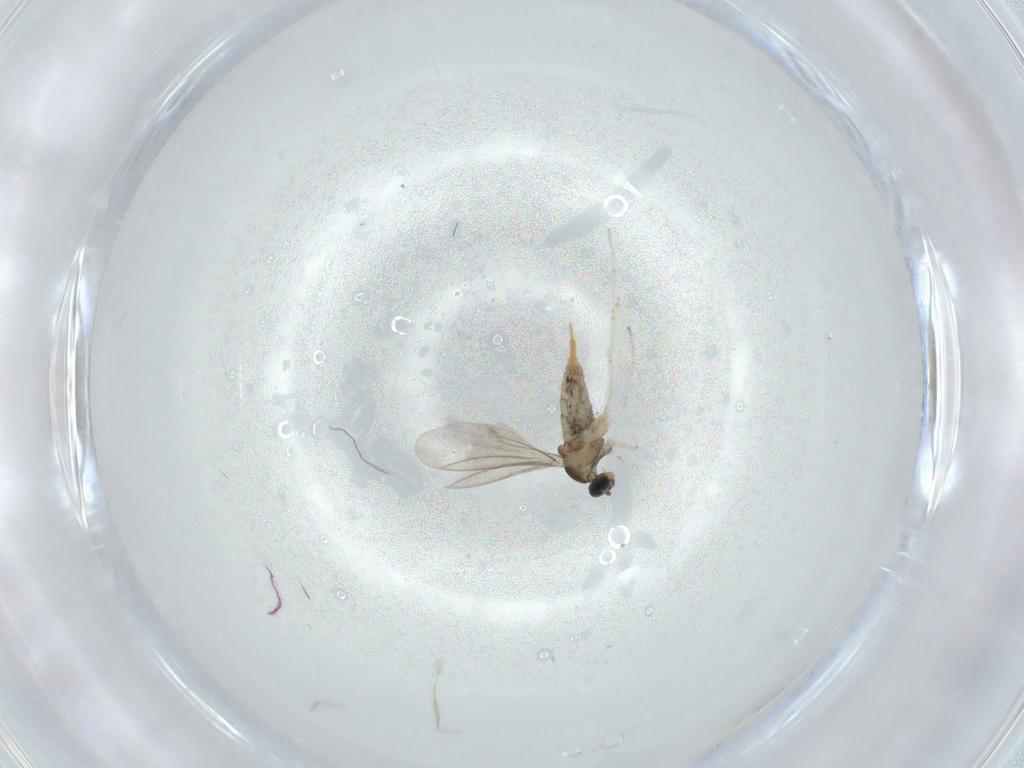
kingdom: Animalia
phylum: Arthropoda
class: Insecta
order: Diptera
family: Cecidomyiidae
